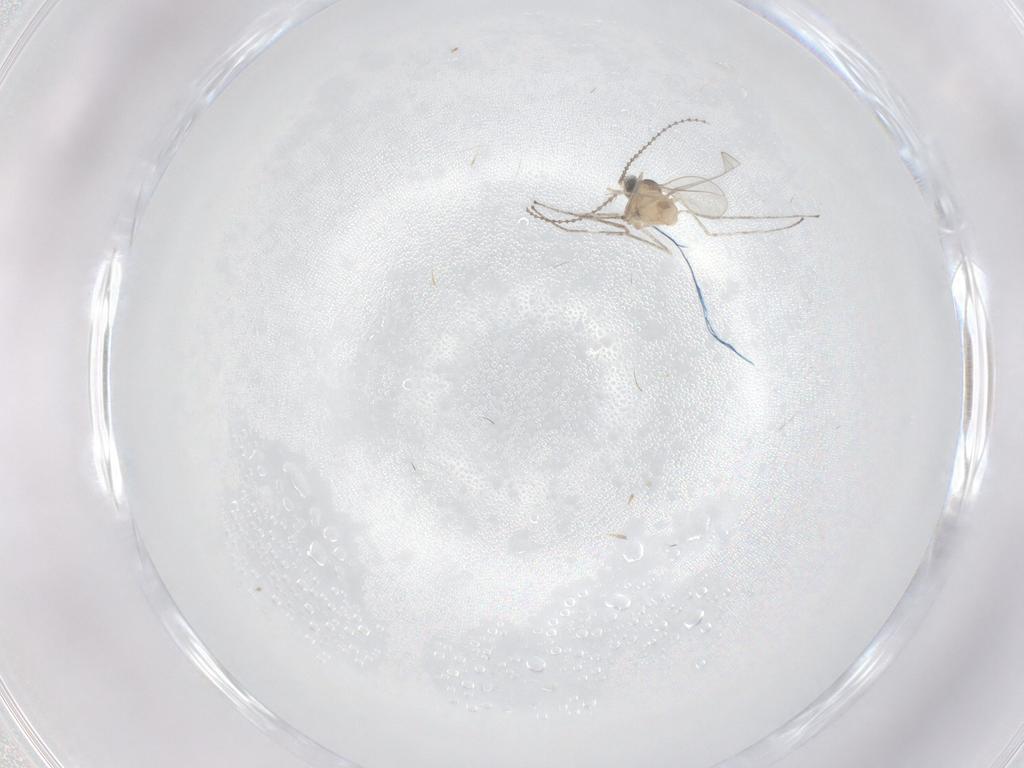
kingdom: Animalia
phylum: Arthropoda
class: Insecta
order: Diptera
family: Cecidomyiidae
